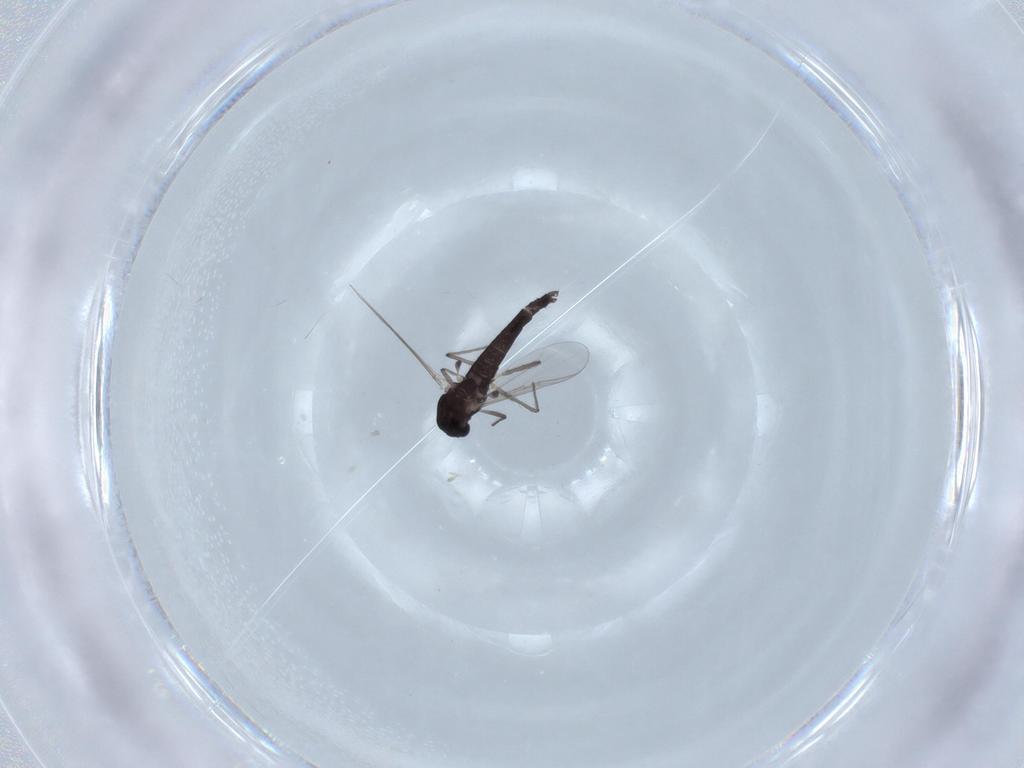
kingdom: Animalia
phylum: Arthropoda
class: Insecta
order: Diptera
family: Chironomidae
